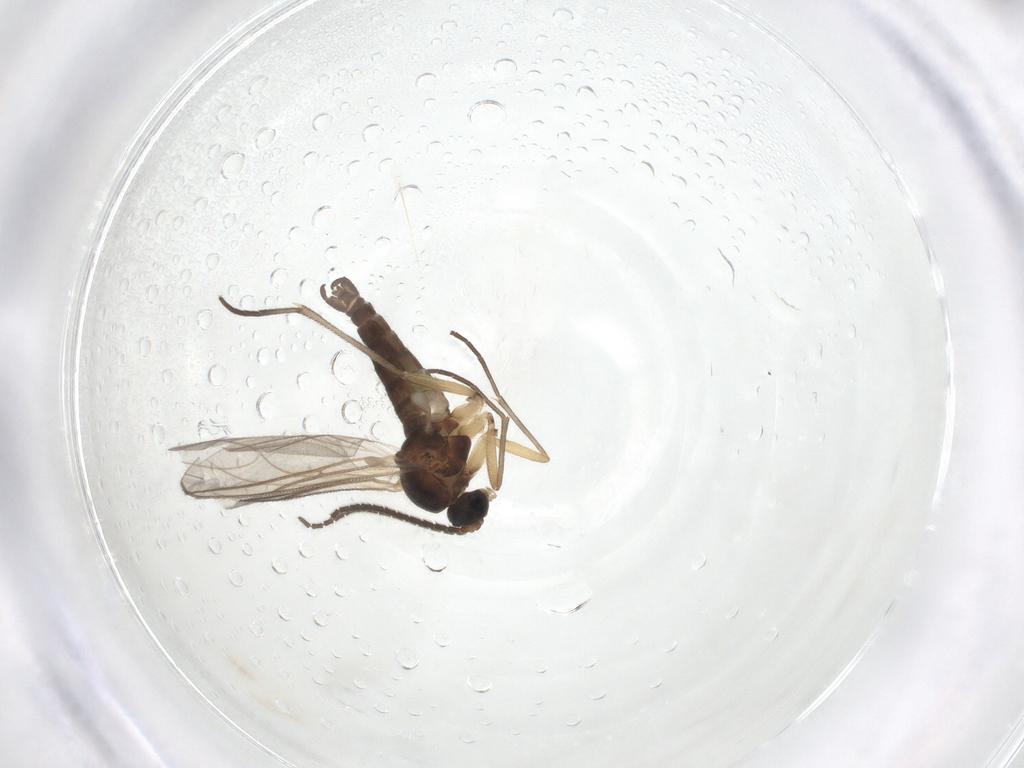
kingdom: Animalia
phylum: Arthropoda
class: Insecta
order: Diptera
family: Sciaridae
